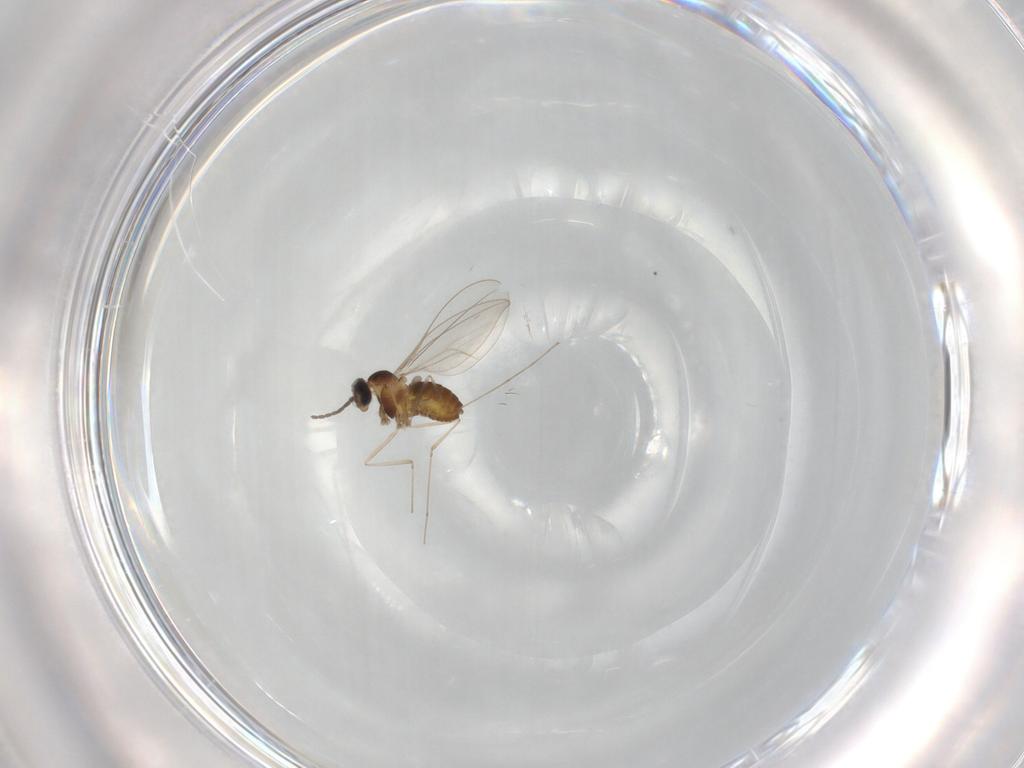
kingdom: Animalia
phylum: Arthropoda
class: Insecta
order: Diptera
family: Cecidomyiidae
